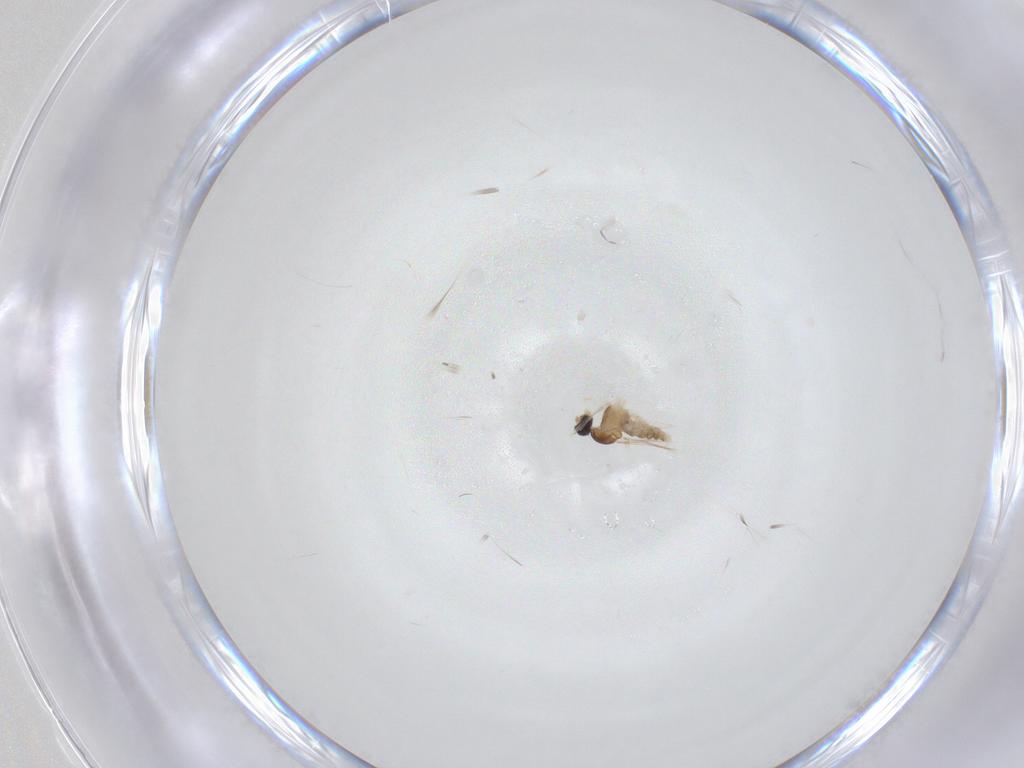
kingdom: Animalia
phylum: Arthropoda
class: Insecta
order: Diptera
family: Cecidomyiidae
